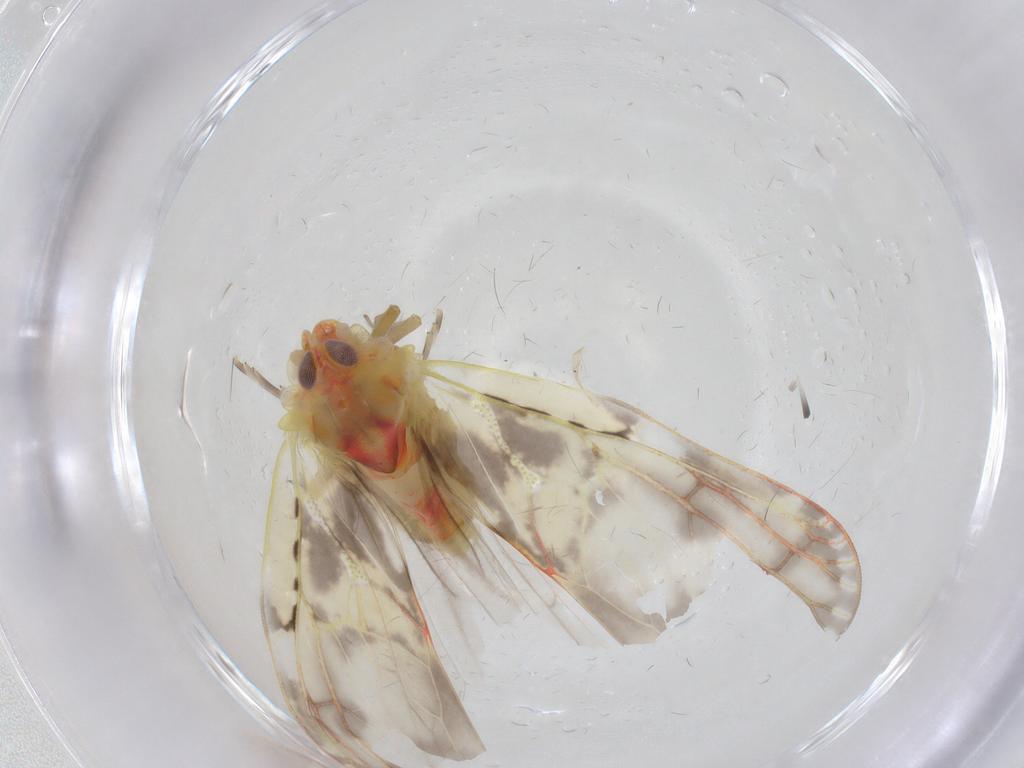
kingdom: Animalia
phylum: Arthropoda
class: Insecta
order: Hemiptera
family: Derbidae
